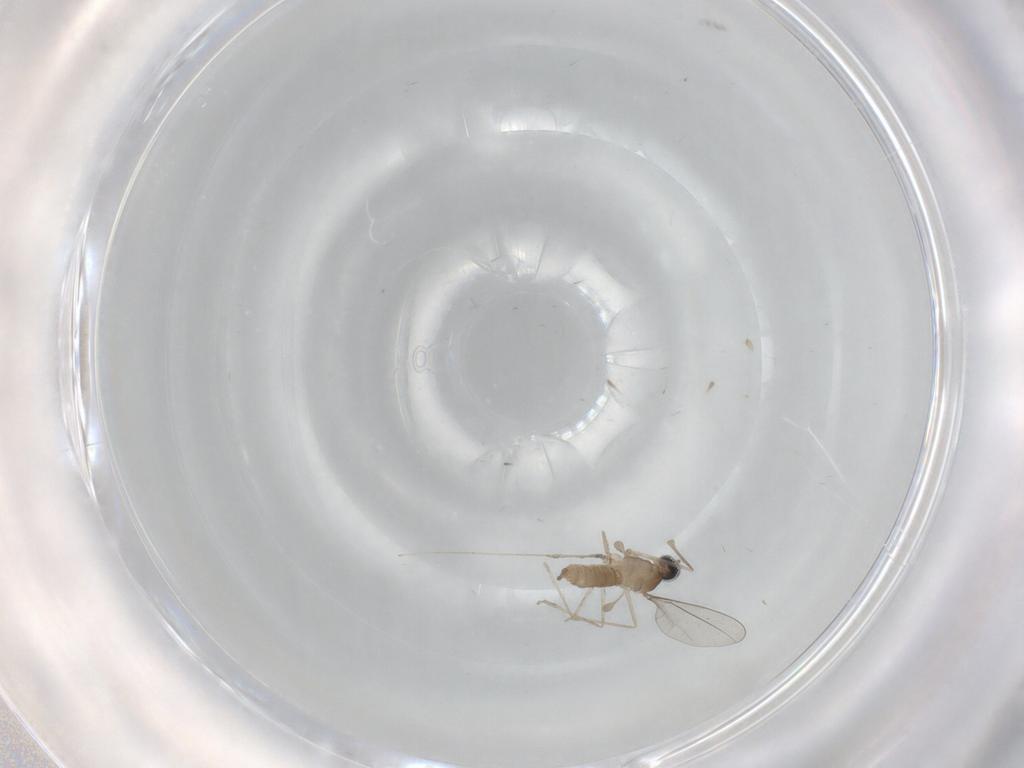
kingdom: Animalia
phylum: Arthropoda
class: Insecta
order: Diptera
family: Cecidomyiidae
